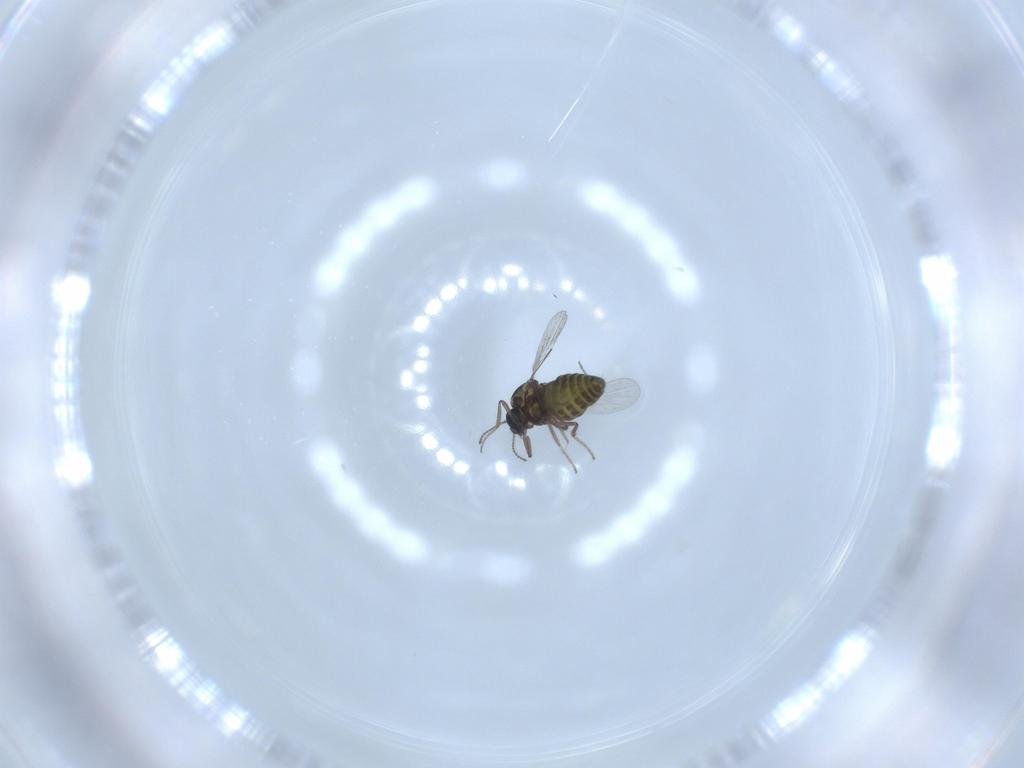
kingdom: Animalia
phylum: Arthropoda
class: Insecta
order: Diptera
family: Ceratopogonidae
